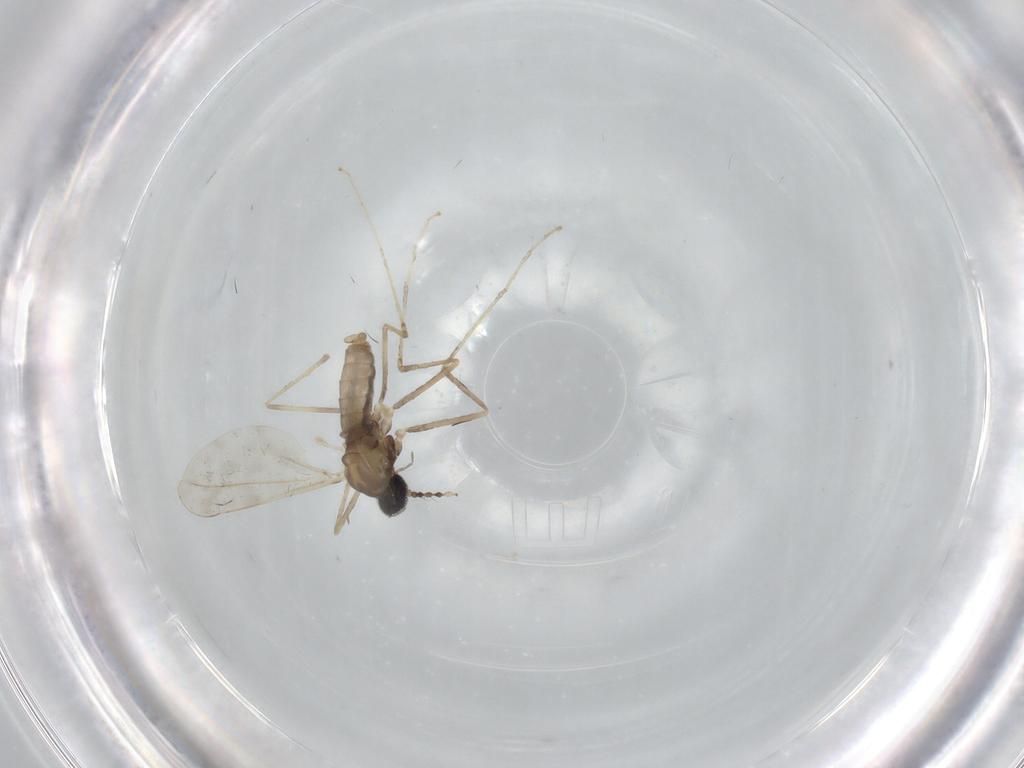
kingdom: Animalia
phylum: Arthropoda
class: Insecta
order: Diptera
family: Cecidomyiidae
